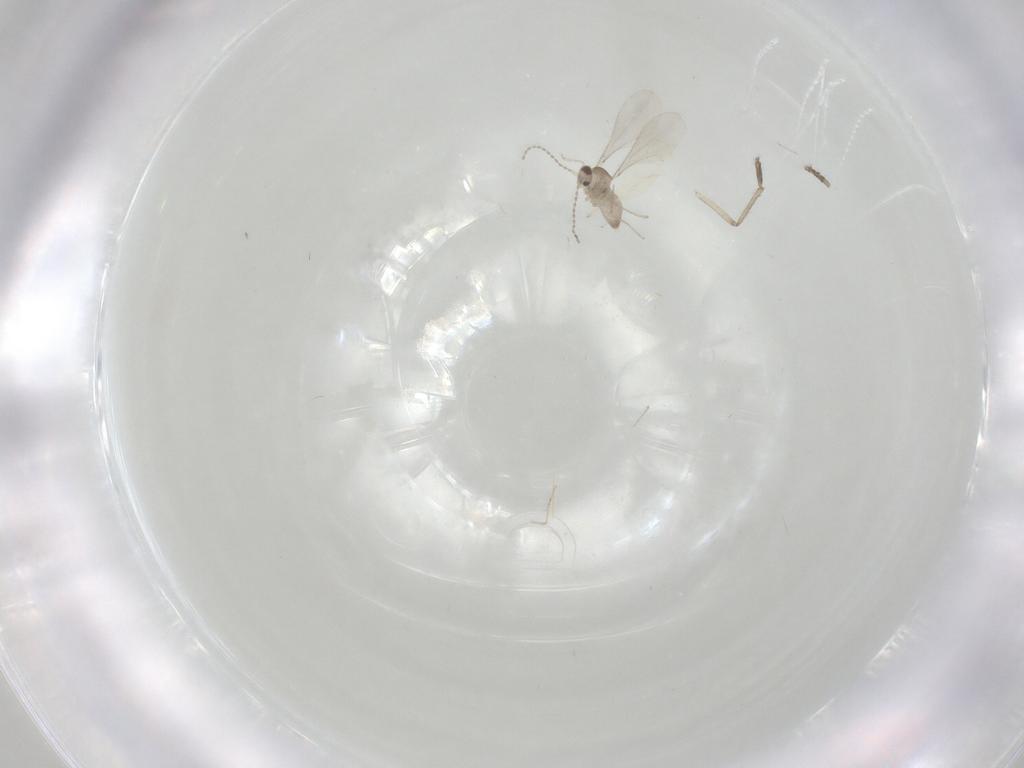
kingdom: Animalia
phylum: Arthropoda
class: Insecta
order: Diptera
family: Cecidomyiidae
